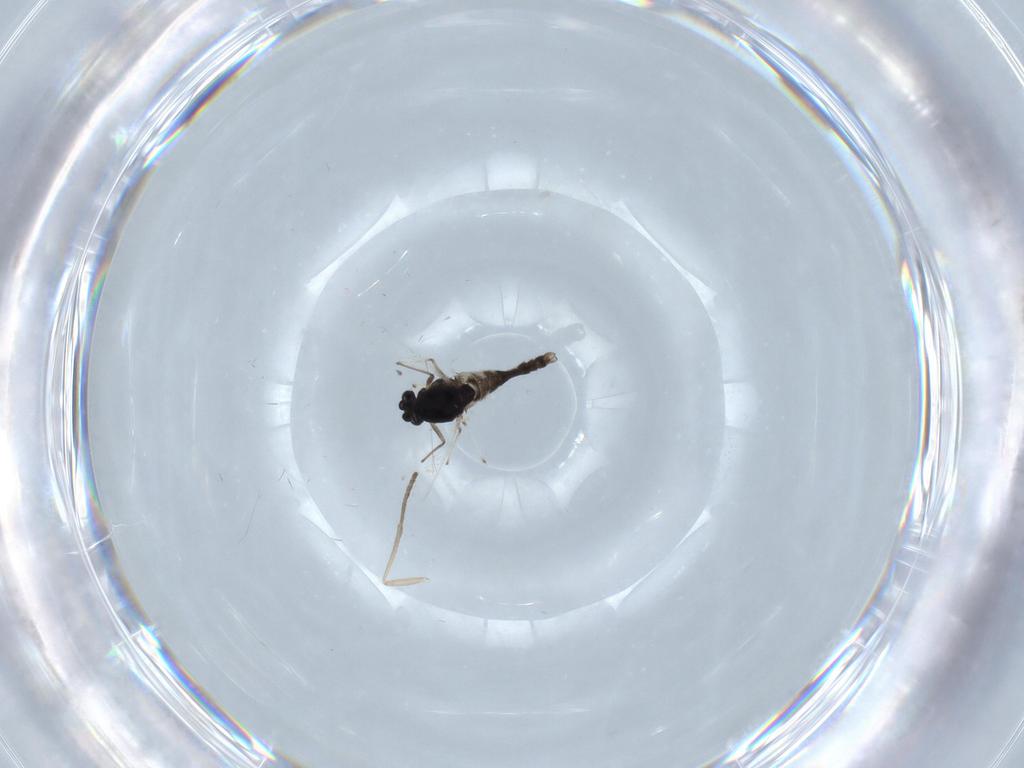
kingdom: Animalia
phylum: Arthropoda
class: Insecta
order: Diptera
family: Chironomidae
